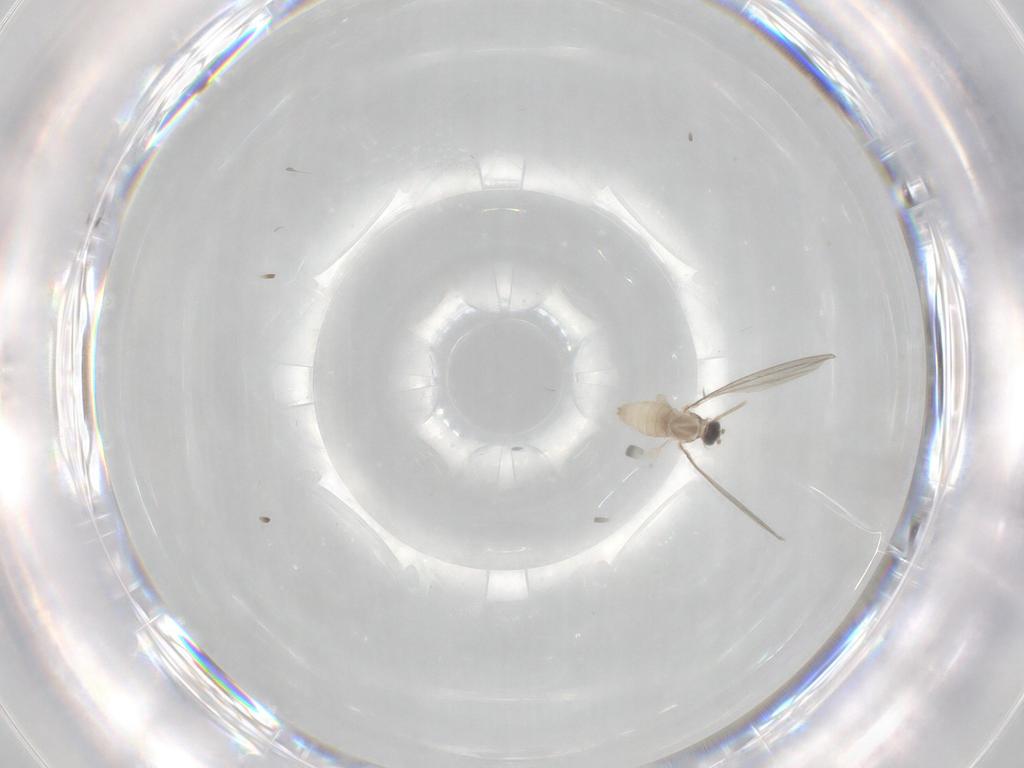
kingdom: Animalia
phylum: Arthropoda
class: Insecta
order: Diptera
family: Cecidomyiidae
